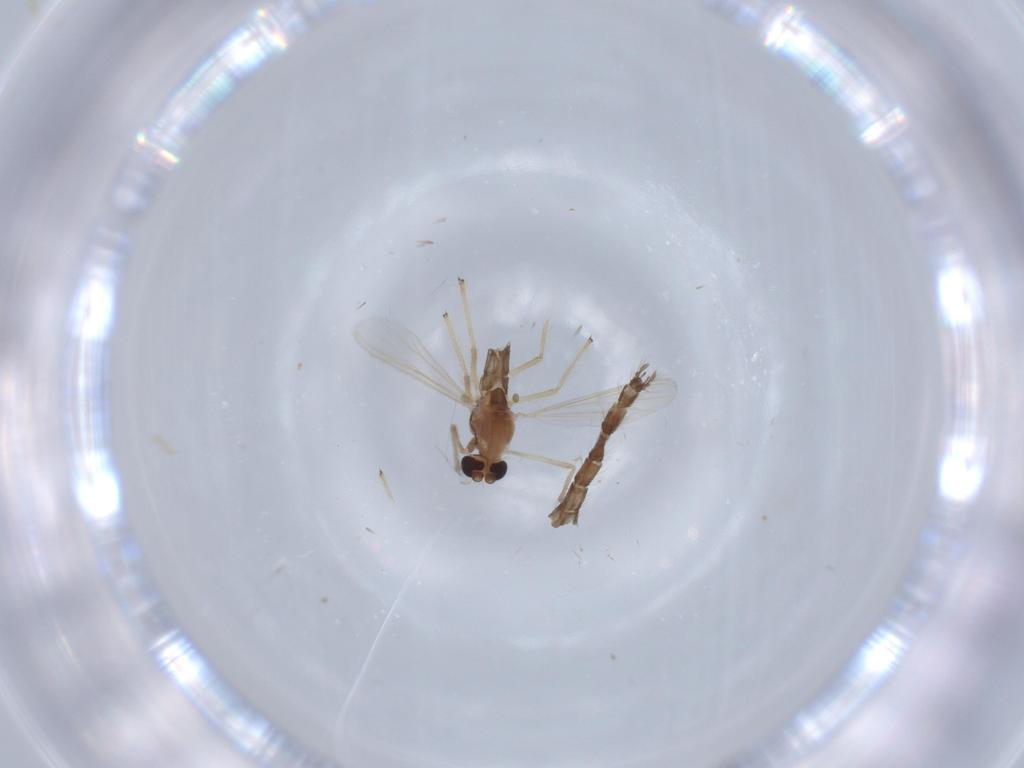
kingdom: Animalia
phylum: Arthropoda
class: Insecta
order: Diptera
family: Chironomidae
